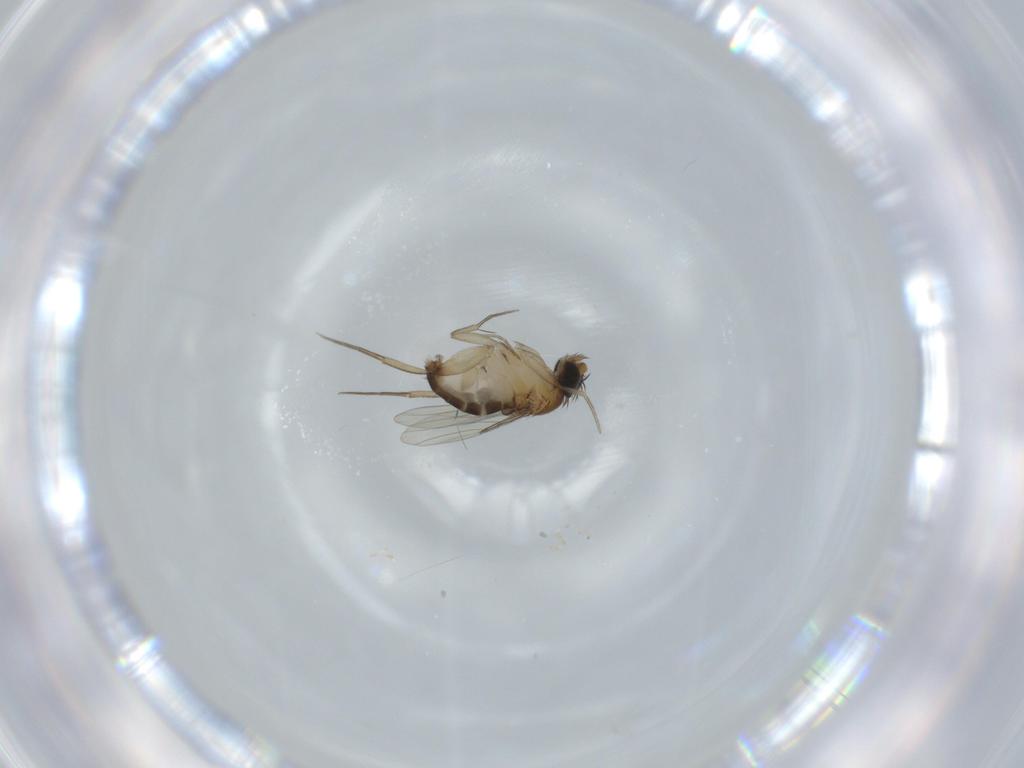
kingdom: Animalia
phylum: Arthropoda
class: Insecta
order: Diptera
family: Phoridae
